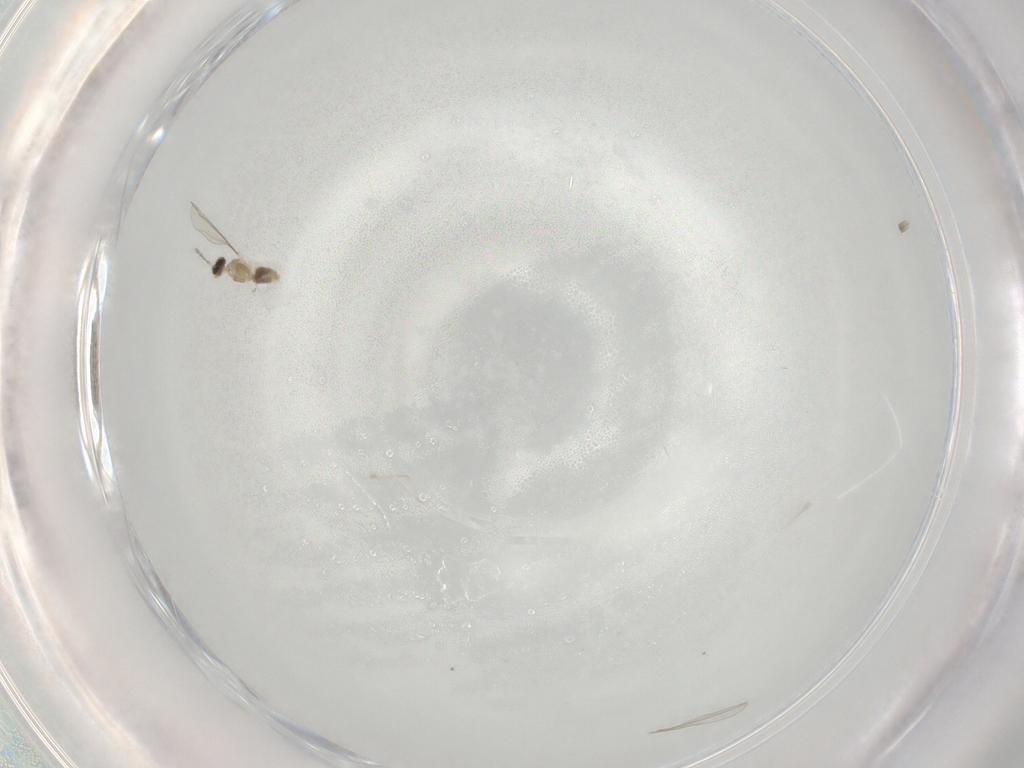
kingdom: Animalia
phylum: Arthropoda
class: Insecta
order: Diptera
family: Cecidomyiidae
